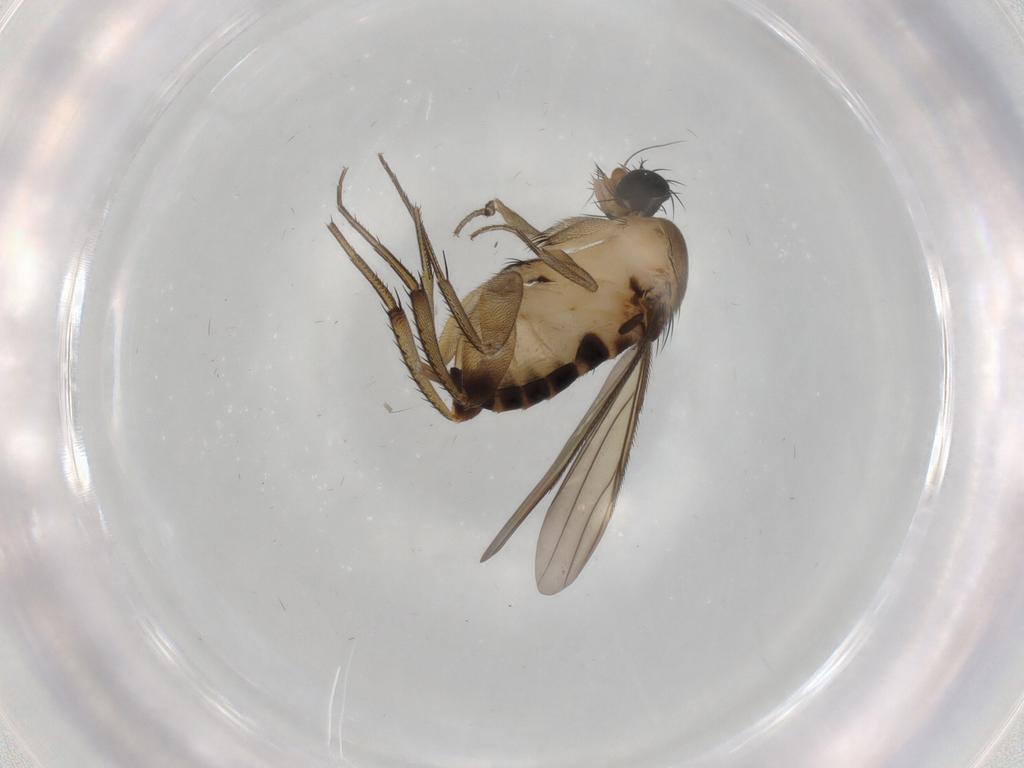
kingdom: Animalia
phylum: Arthropoda
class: Insecta
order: Diptera
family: Phoridae
